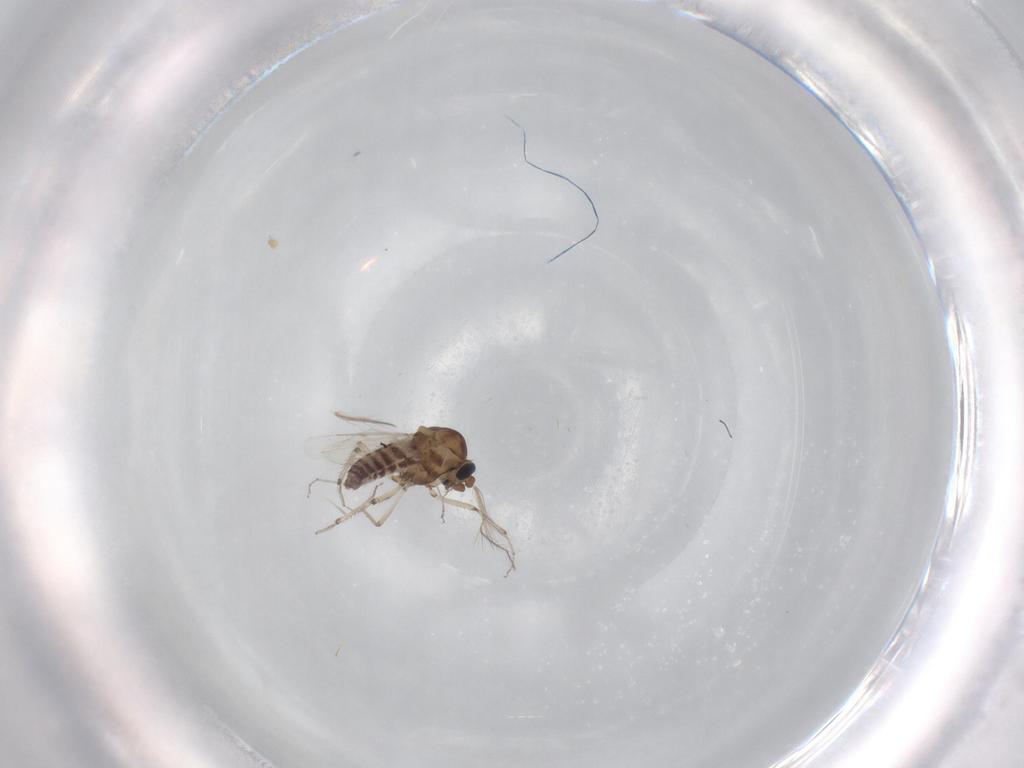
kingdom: Animalia
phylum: Arthropoda
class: Insecta
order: Diptera
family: Ceratopogonidae
